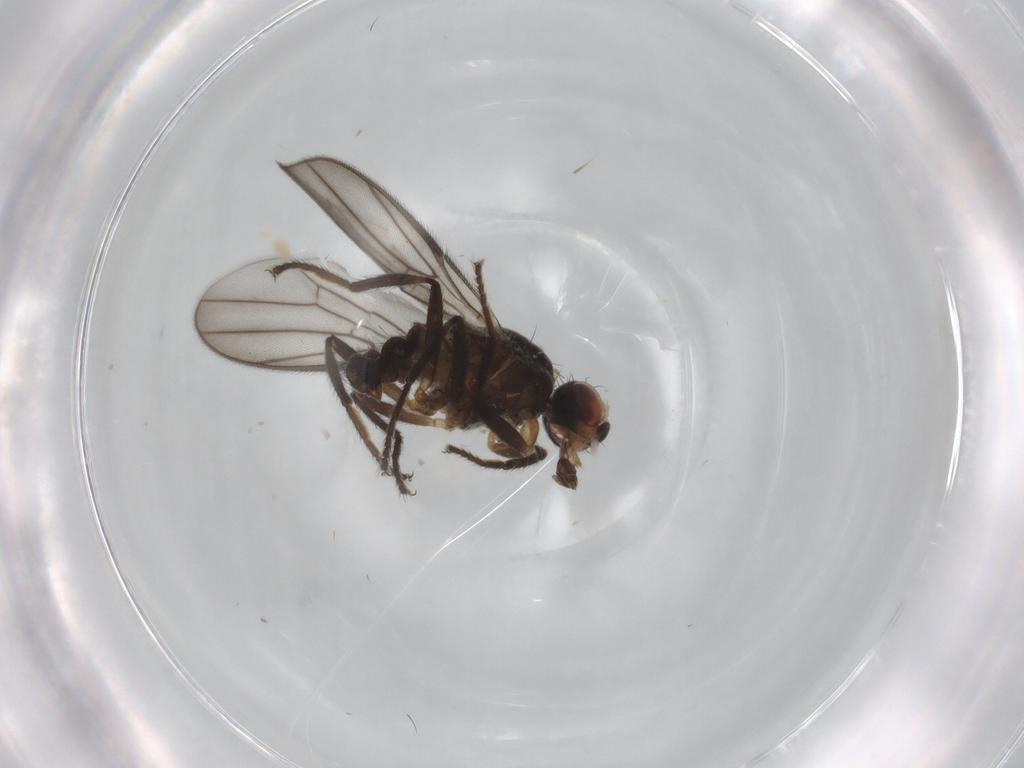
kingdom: Animalia
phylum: Arthropoda
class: Insecta
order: Diptera
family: Chloropidae
